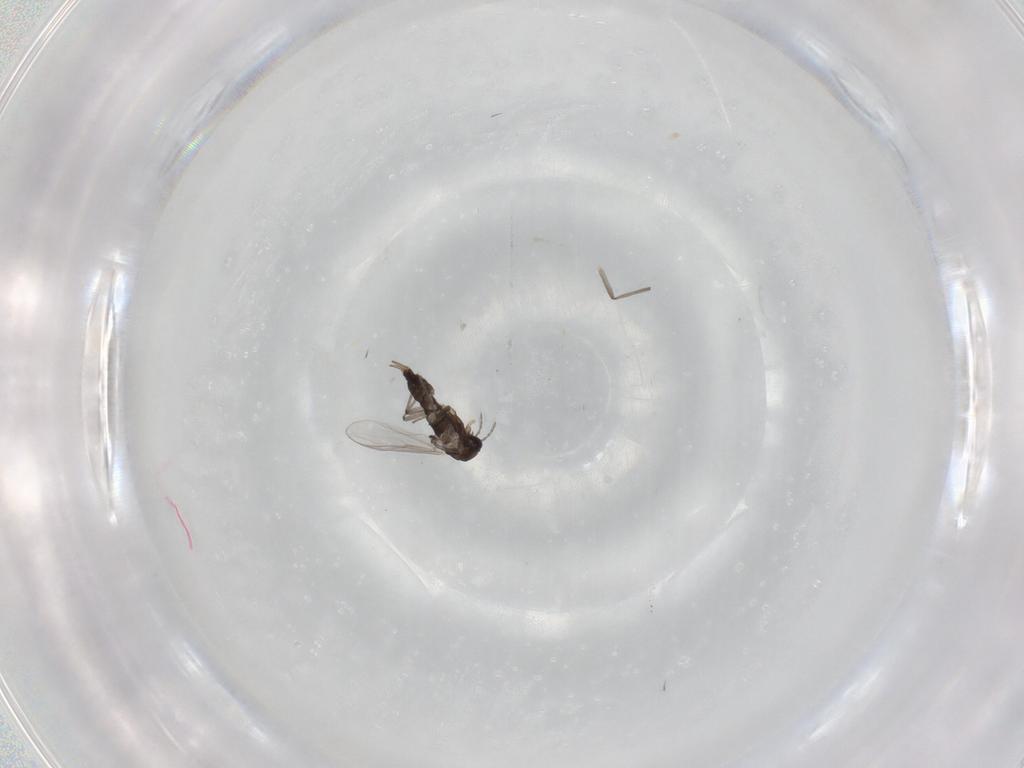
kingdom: Animalia
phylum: Arthropoda
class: Insecta
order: Diptera
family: Chironomidae
